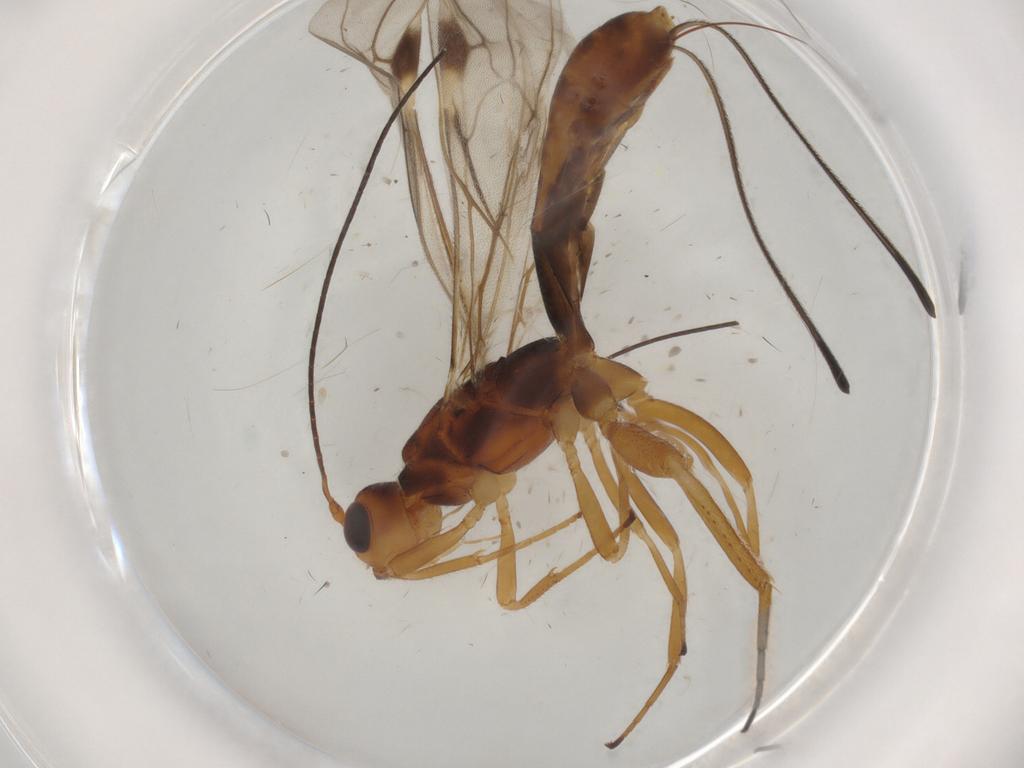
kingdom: Animalia
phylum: Arthropoda
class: Insecta
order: Hymenoptera
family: Braconidae
